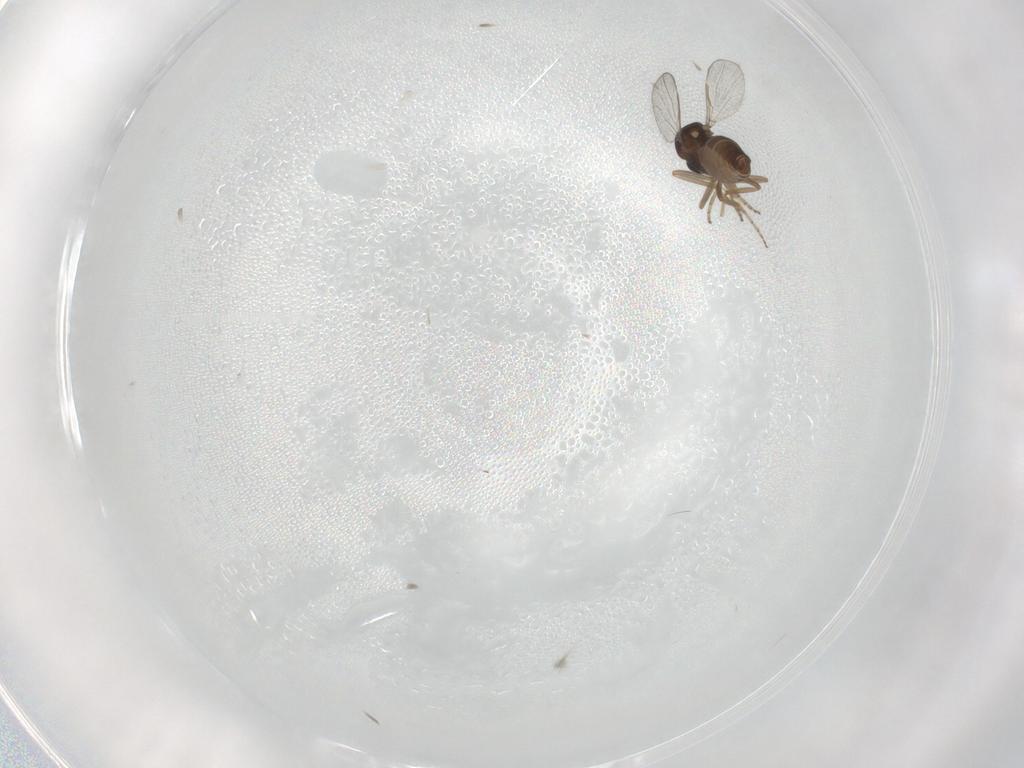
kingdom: Animalia
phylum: Arthropoda
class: Insecta
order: Diptera
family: Ceratopogonidae
